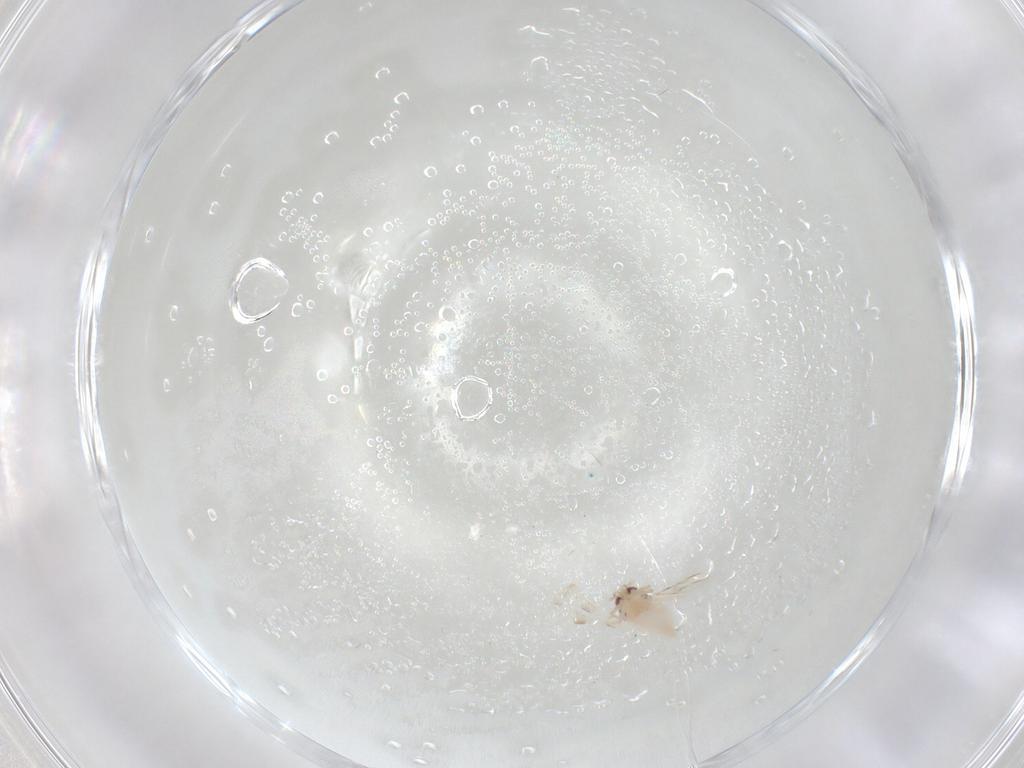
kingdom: Animalia
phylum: Arthropoda
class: Insecta
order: Hemiptera
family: Aleyrodidae
